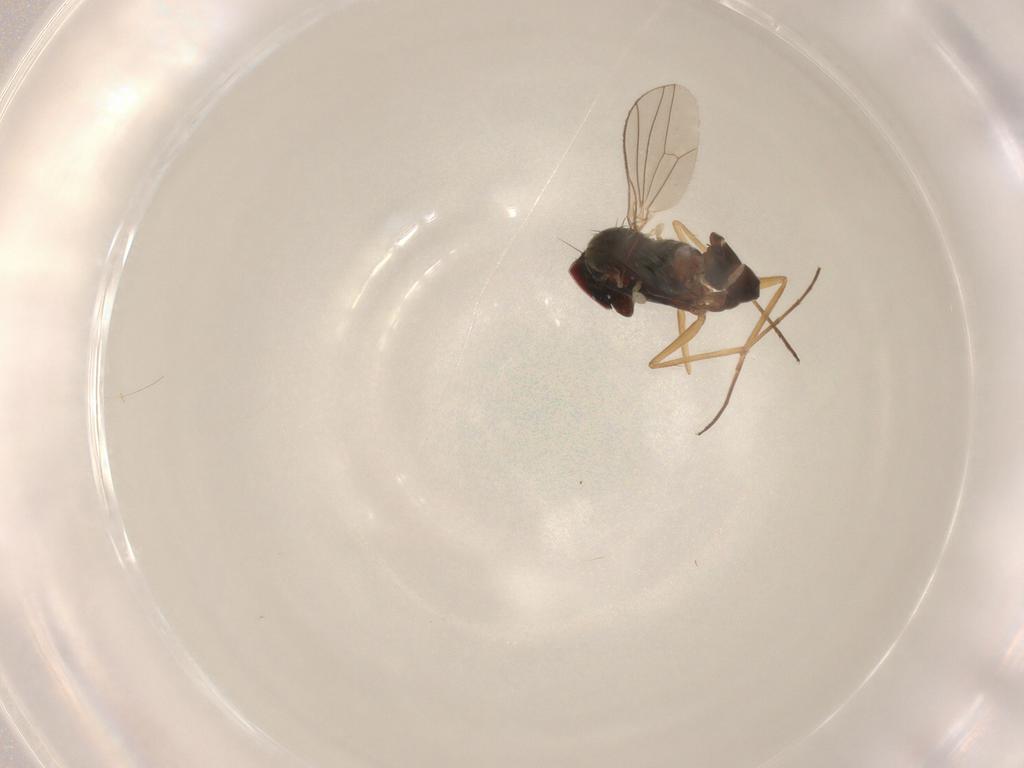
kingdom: Animalia
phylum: Arthropoda
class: Insecta
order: Diptera
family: Dolichopodidae
